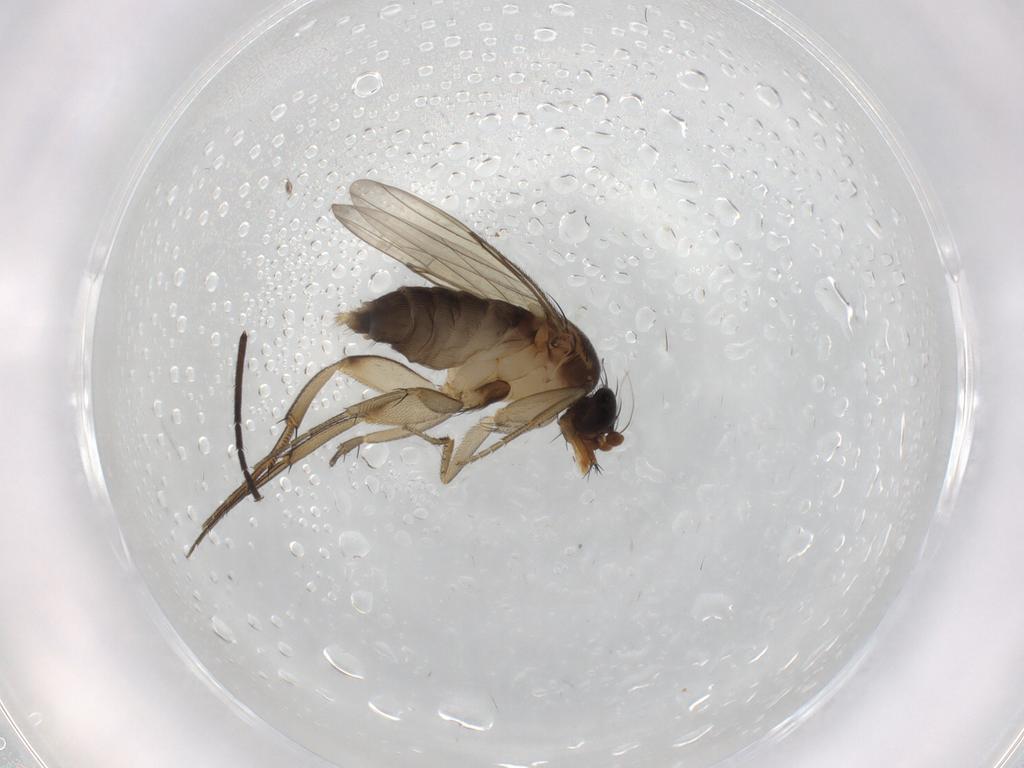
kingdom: Animalia
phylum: Arthropoda
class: Insecta
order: Diptera
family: Phoridae
